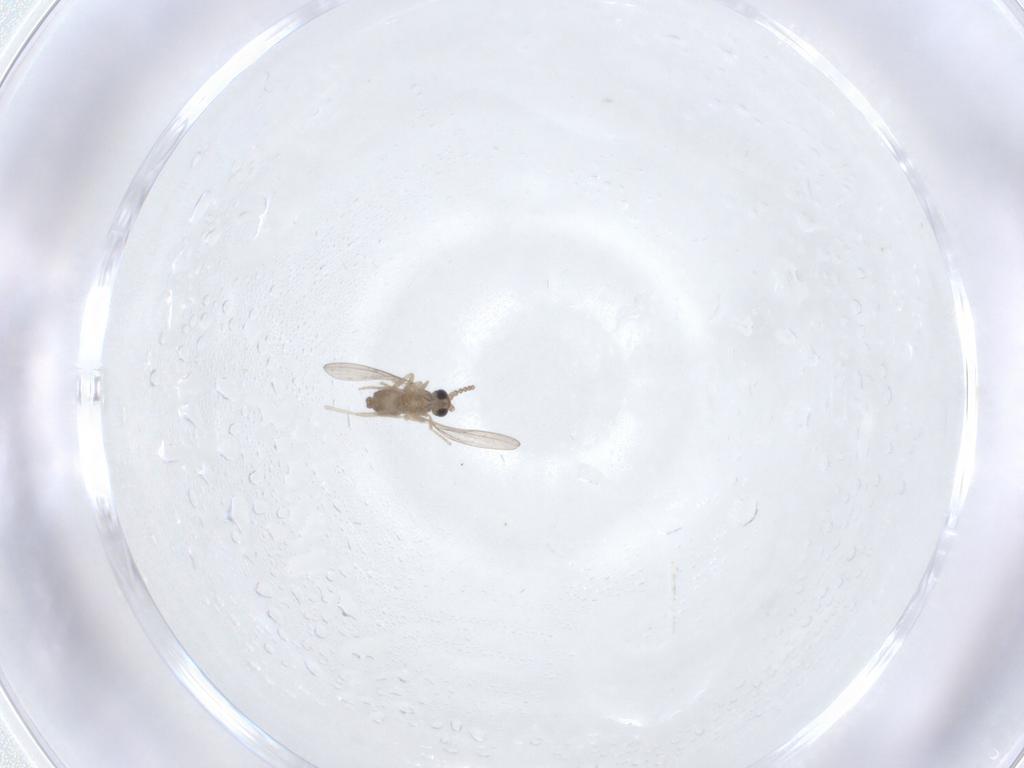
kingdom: Animalia
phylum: Arthropoda
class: Insecta
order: Diptera
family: Cecidomyiidae
